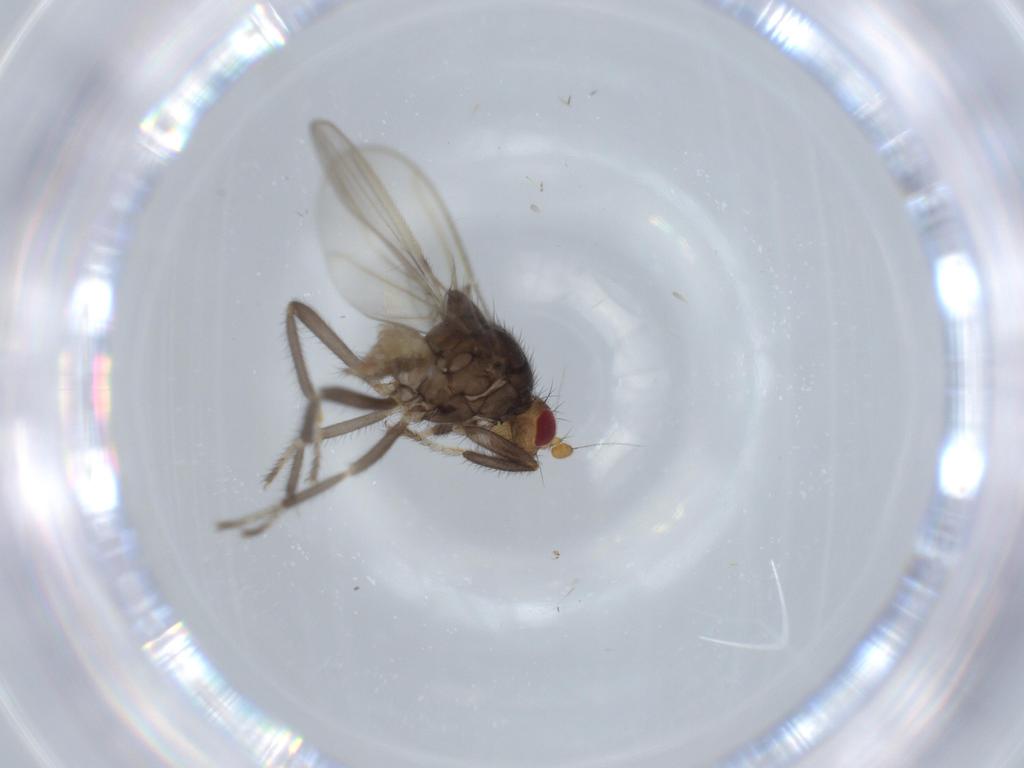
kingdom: Animalia
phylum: Arthropoda
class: Insecta
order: Diptera
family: Sphaeroceridae
